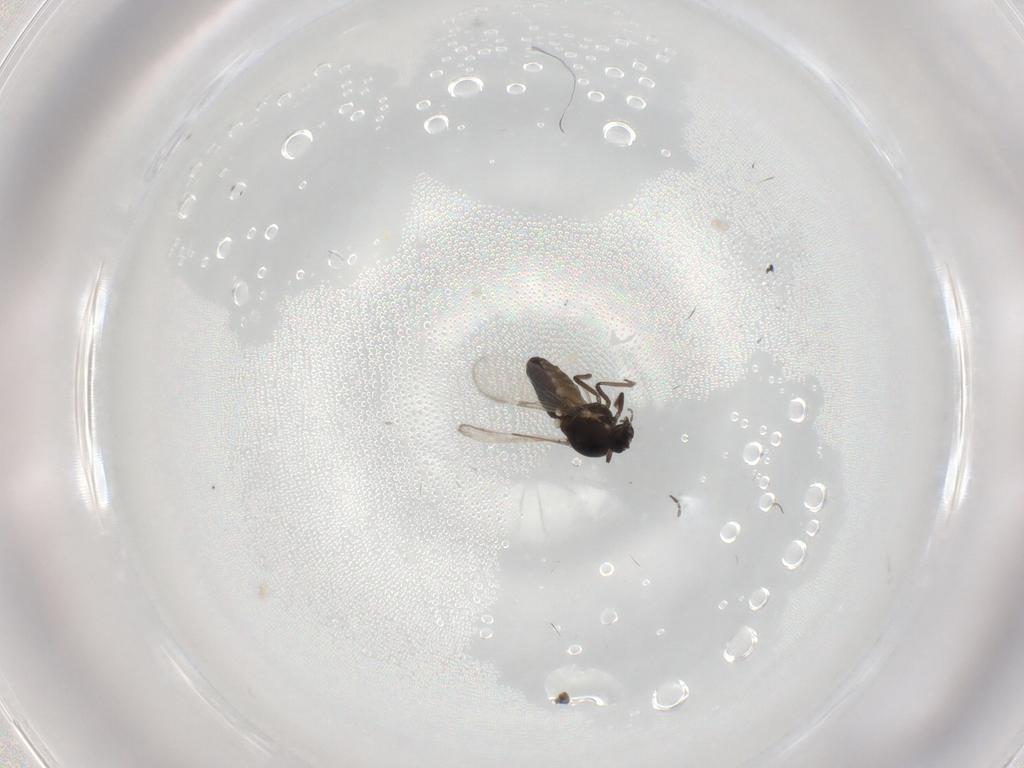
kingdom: Animalia
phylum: Arthropoda
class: Insecta
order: Diptera
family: Ceratopogonidae
